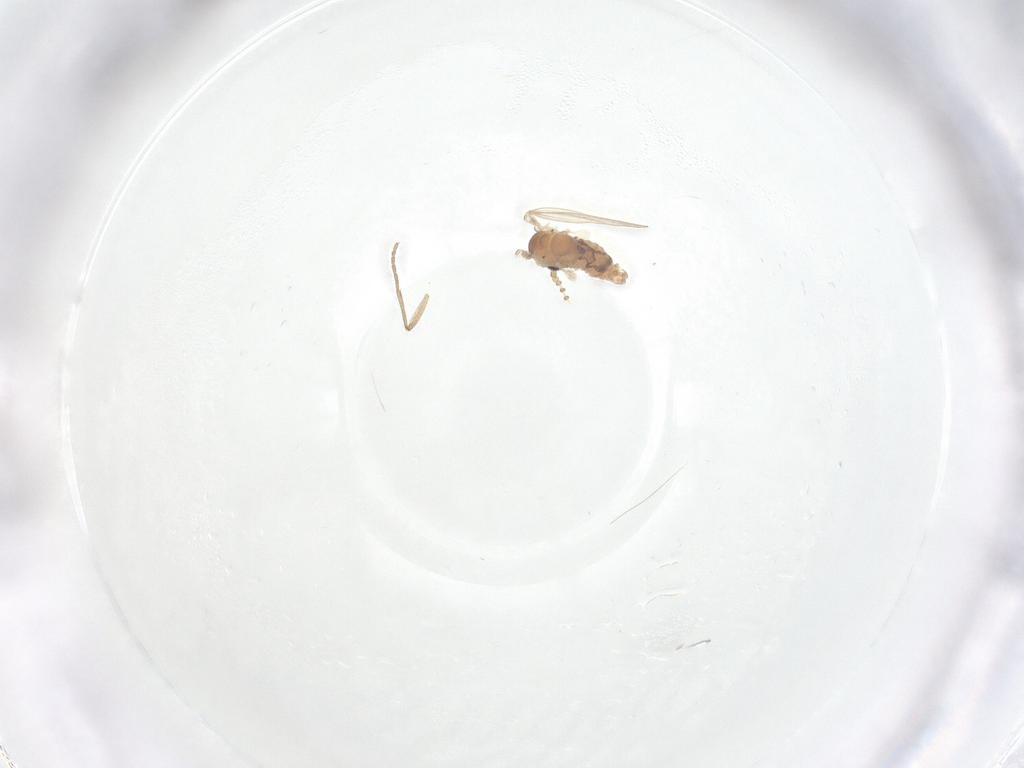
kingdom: Animalia
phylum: Arthropoda
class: Insecta
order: Diptera
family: Psychodidae
